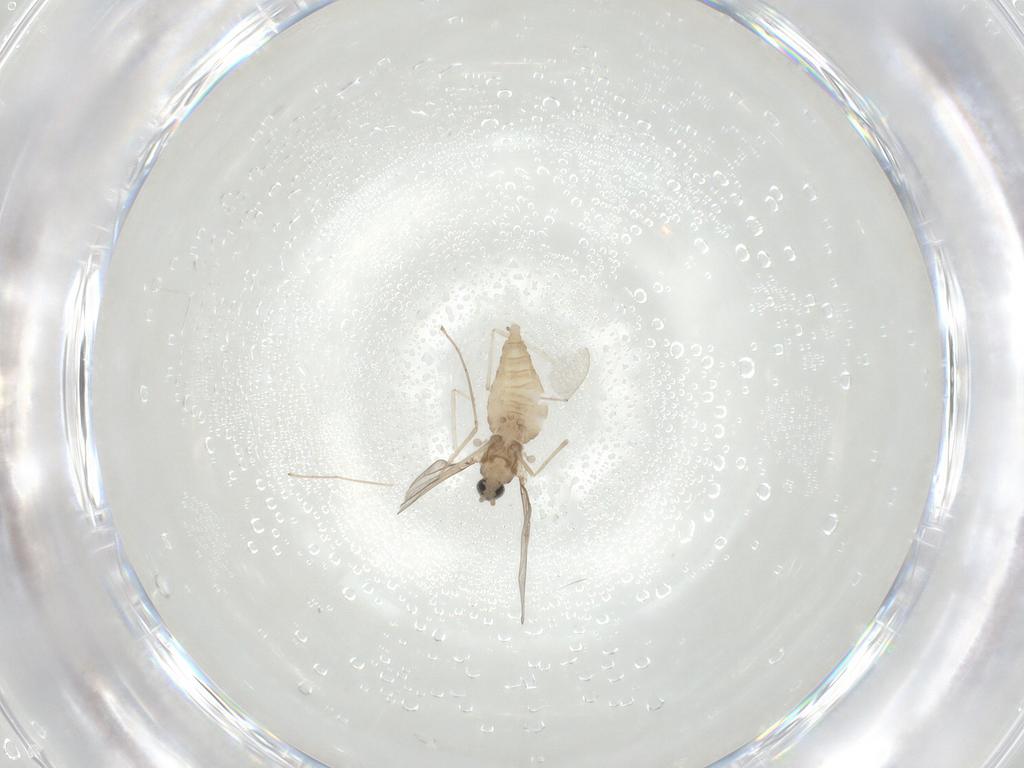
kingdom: Animalia
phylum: Arthropoda
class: Insecta
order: Diptera
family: Cecidomyiidae
